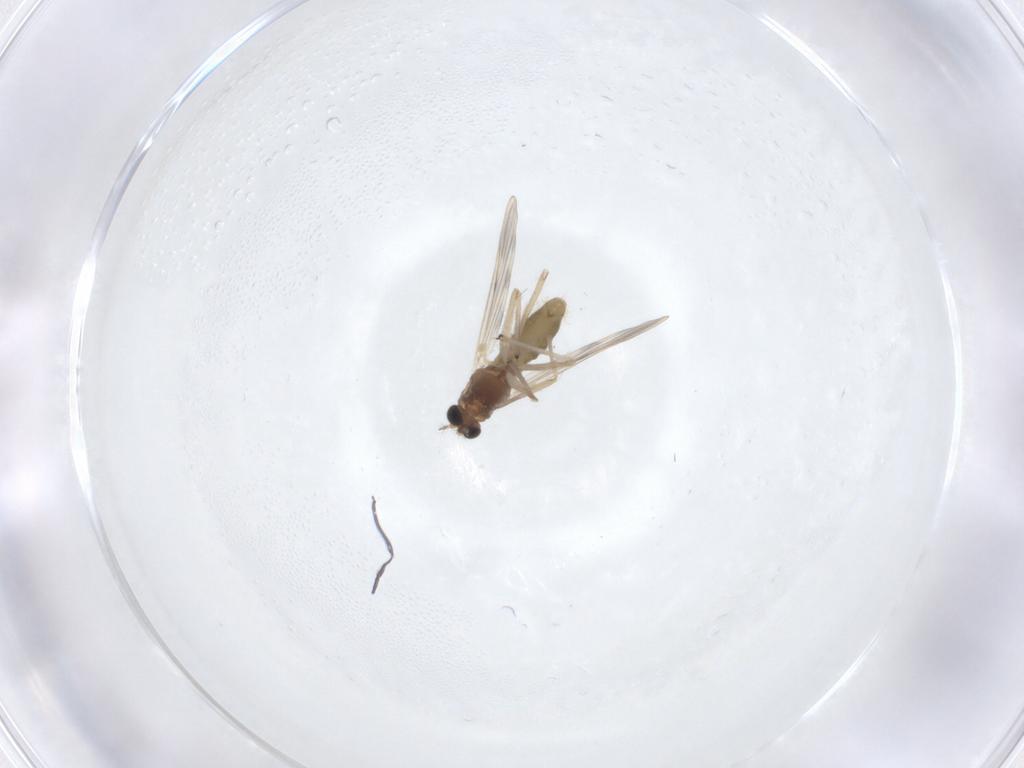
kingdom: Animalia
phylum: Arthropoda
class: Insecta
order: Diptera
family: Chironomidae
